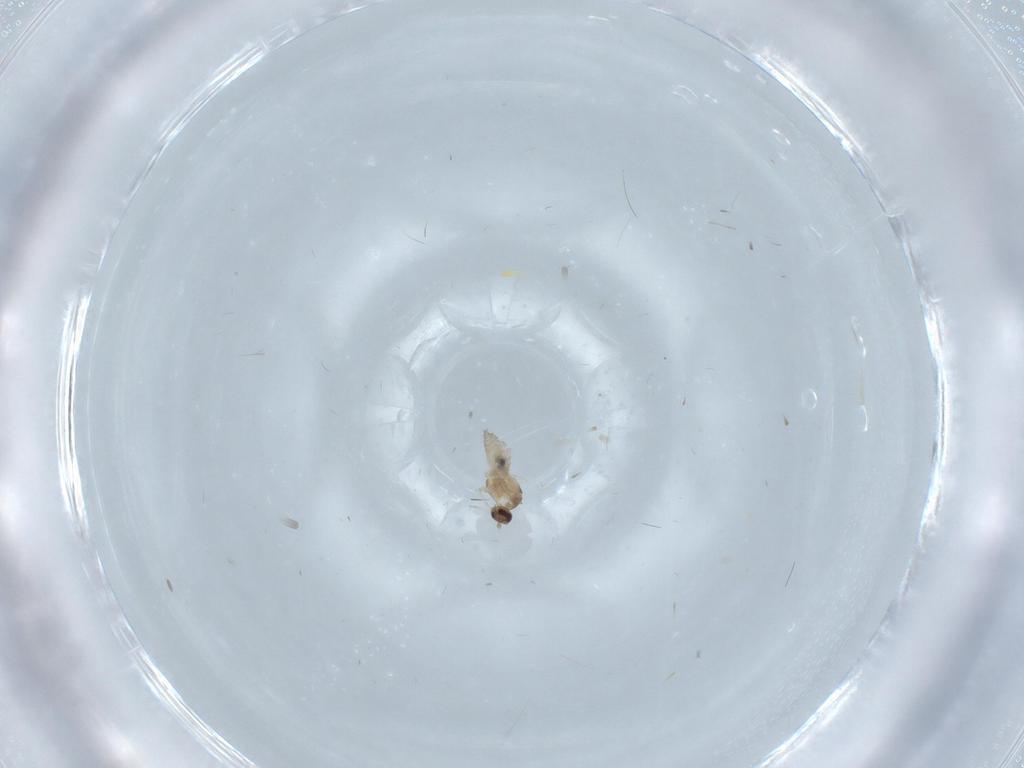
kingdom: Animalia
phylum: Arthropoda
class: Insecta
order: Diptera
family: Cecidomyiidae
